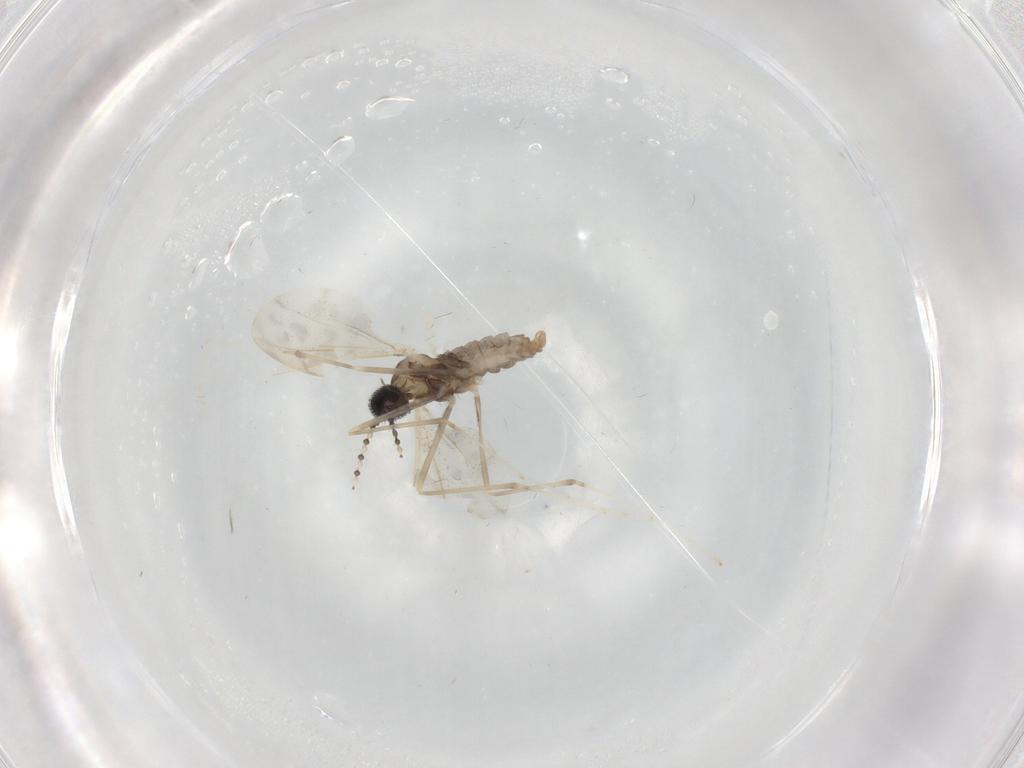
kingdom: Animalia
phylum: Arthropoda
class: Insecta
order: Diptera
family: Cecidomyiidae
